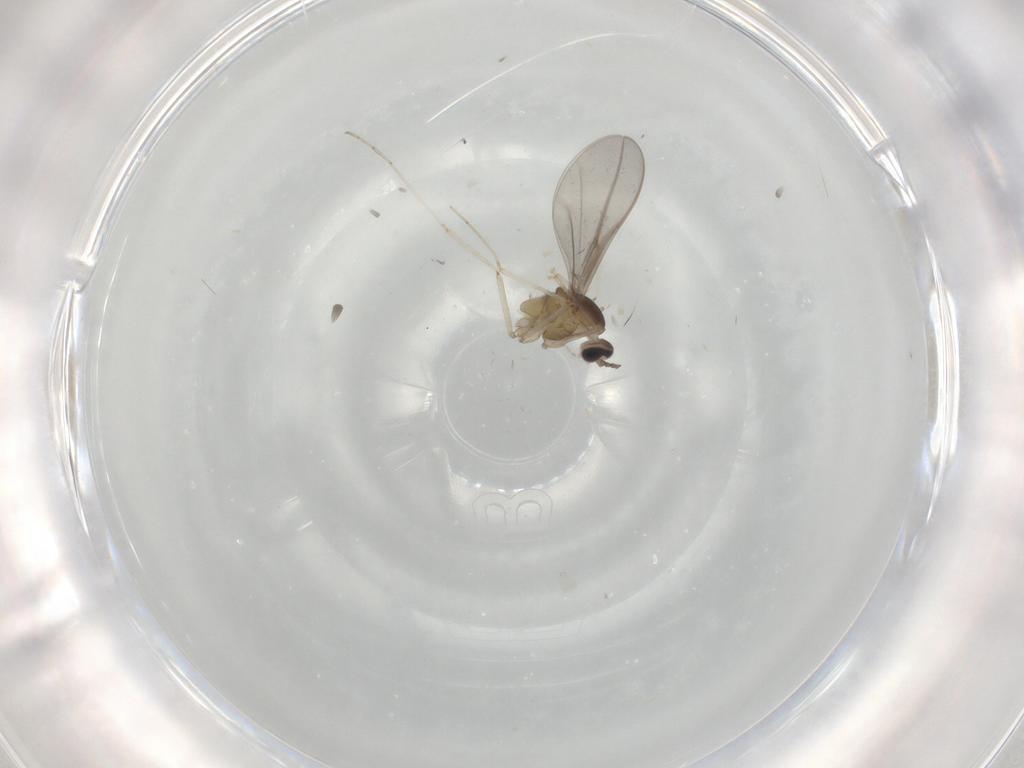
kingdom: Animalia
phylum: Arthropoda
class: Insecta
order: Diptera
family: Cecidomyiidae
